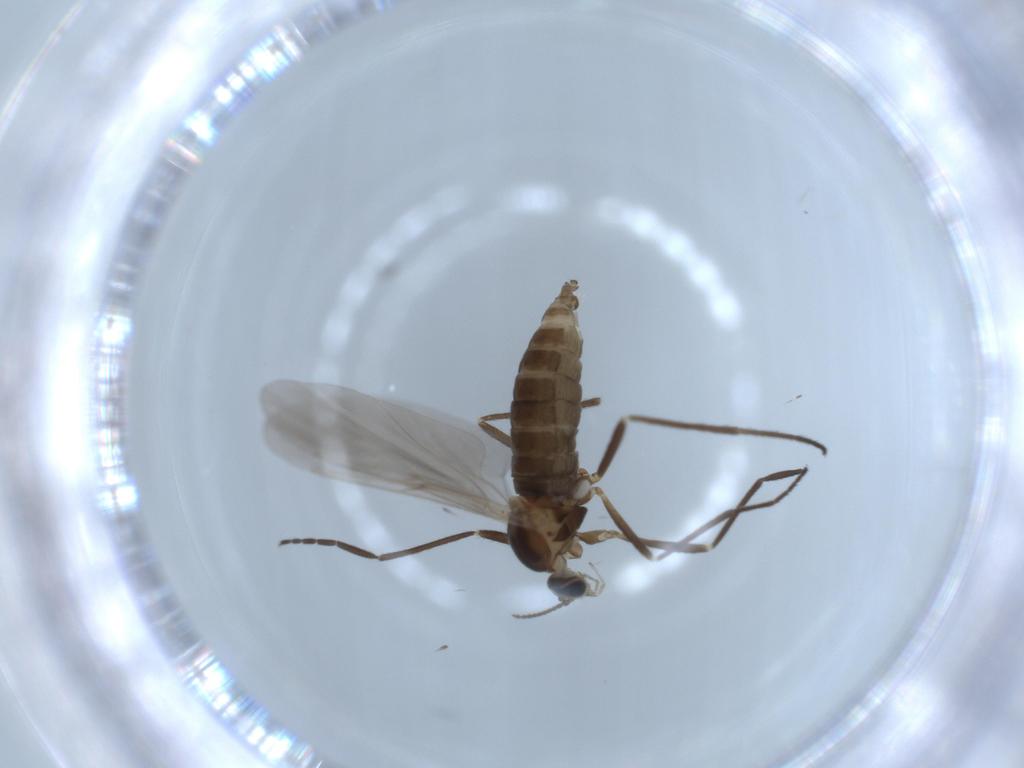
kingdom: Animalia
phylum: Arthropoda
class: Insecta
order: Diptera
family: Cecidomyiidae
